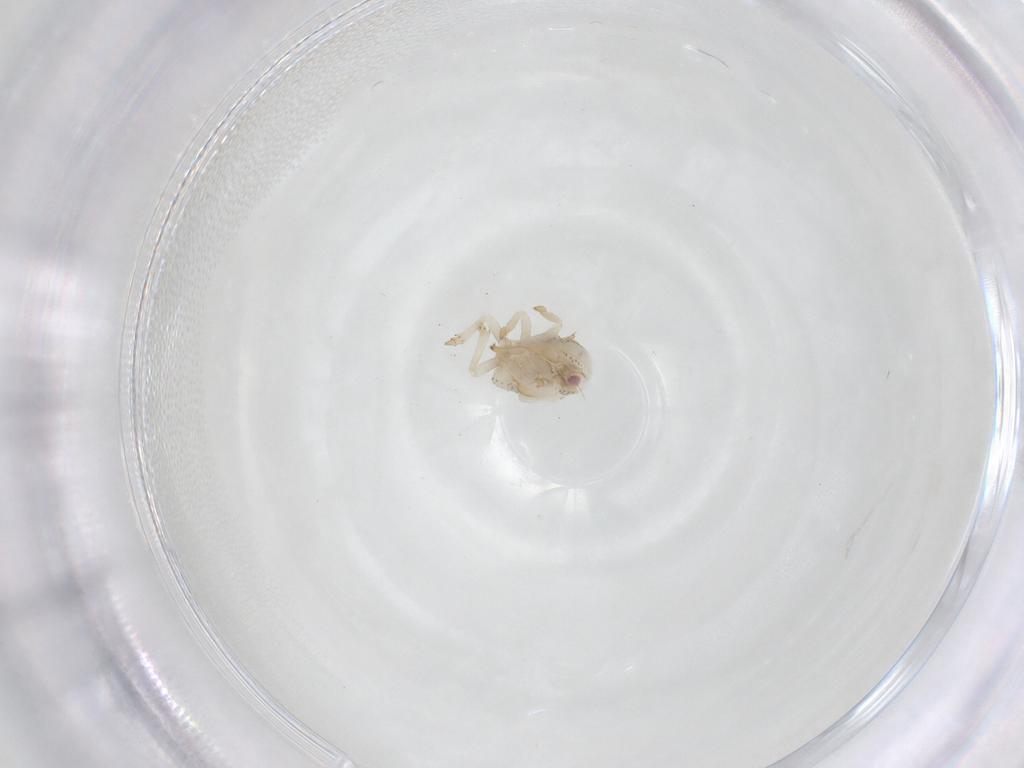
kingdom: Animalia
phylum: Arthropoda
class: Insecta
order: Hemiptera
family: Acanaloniidae
